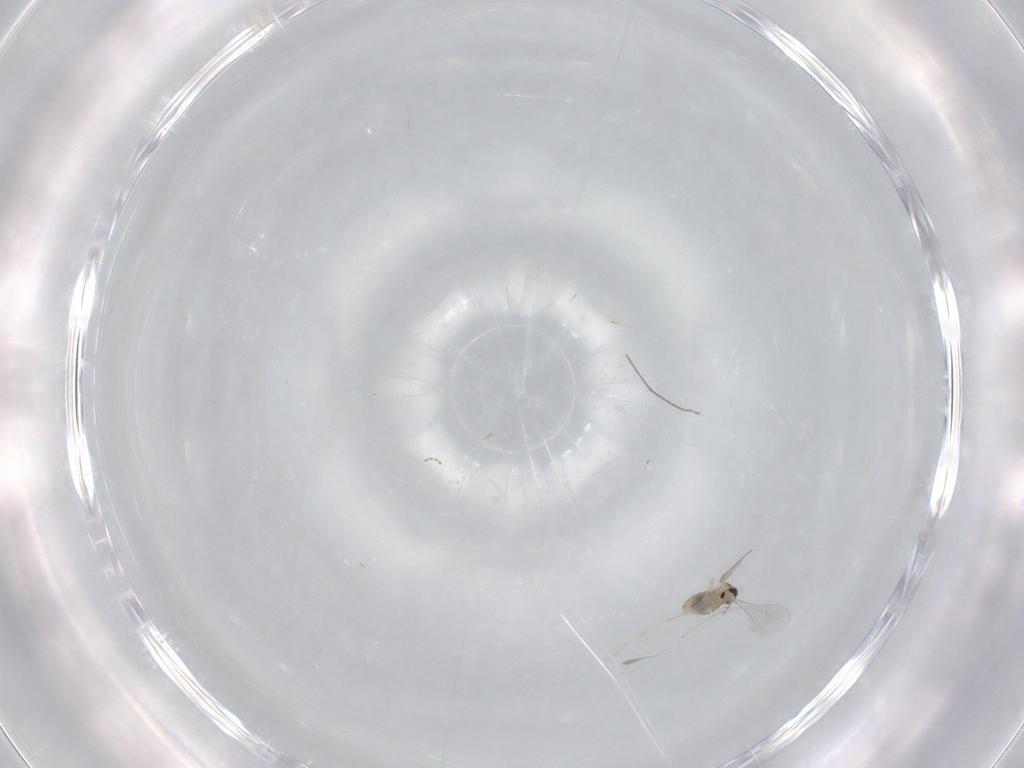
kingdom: Animalia
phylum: Arthropoda
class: Insecta
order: Diptera
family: Cecidomyiidae
